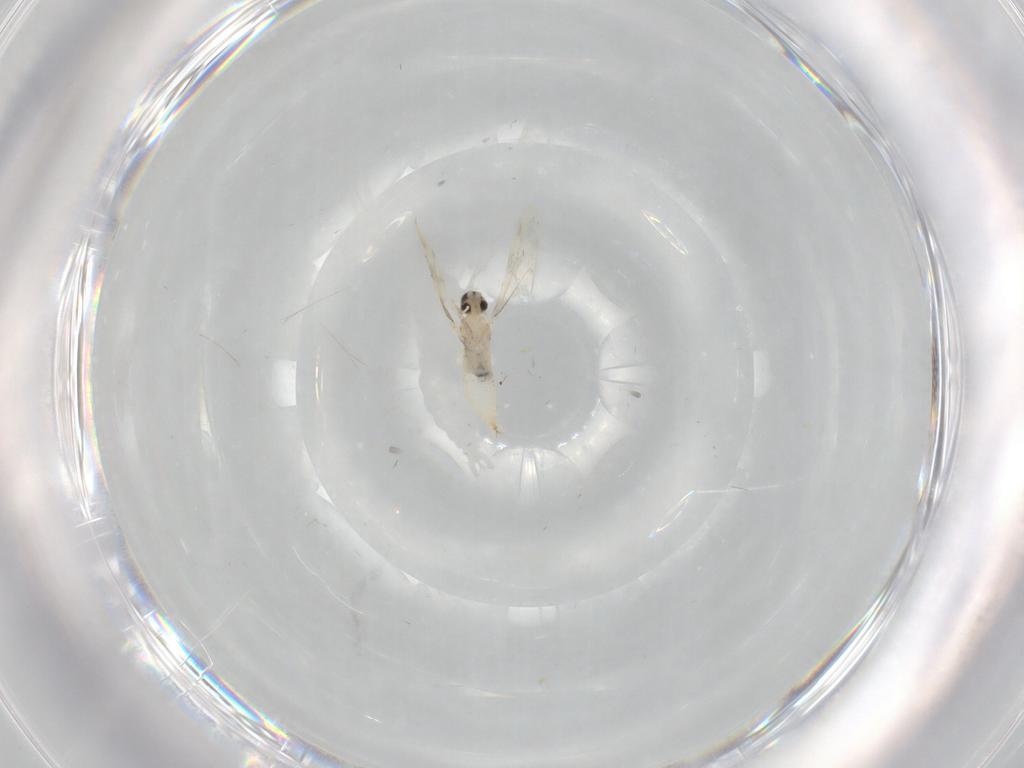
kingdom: Animalia
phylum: Arthropoda
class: Insecta
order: Diptera
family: Cecidomyiidae
